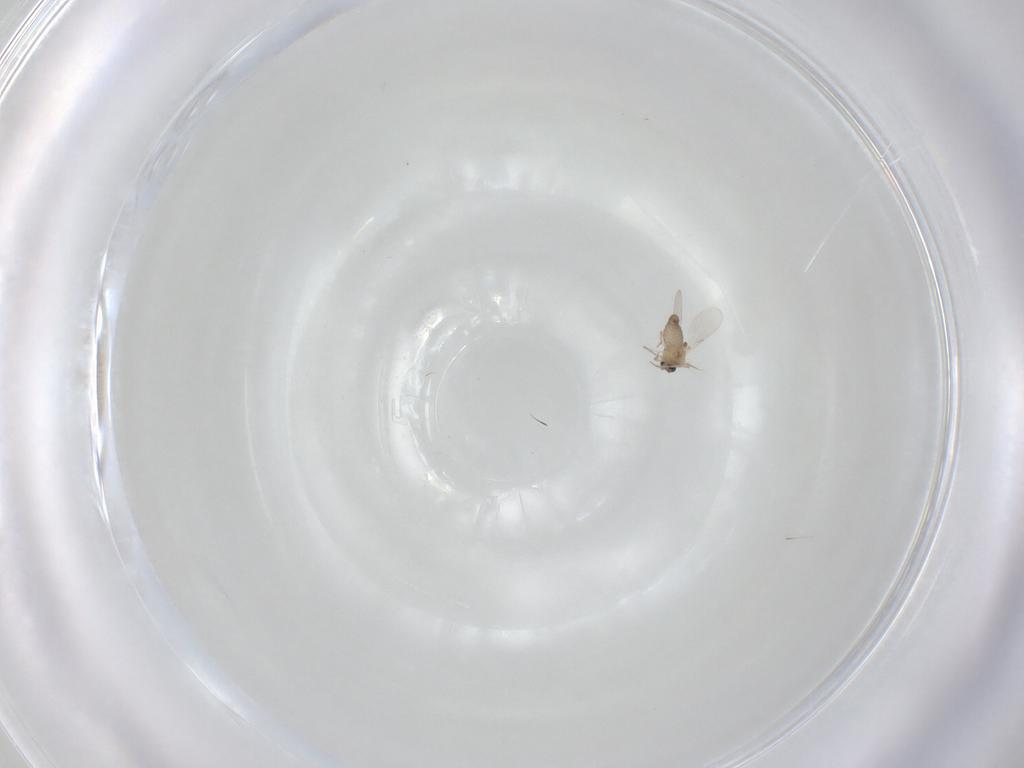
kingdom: Animalia
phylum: Arthropoda
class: Insecta
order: Diptera
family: Ceratopogonidae
